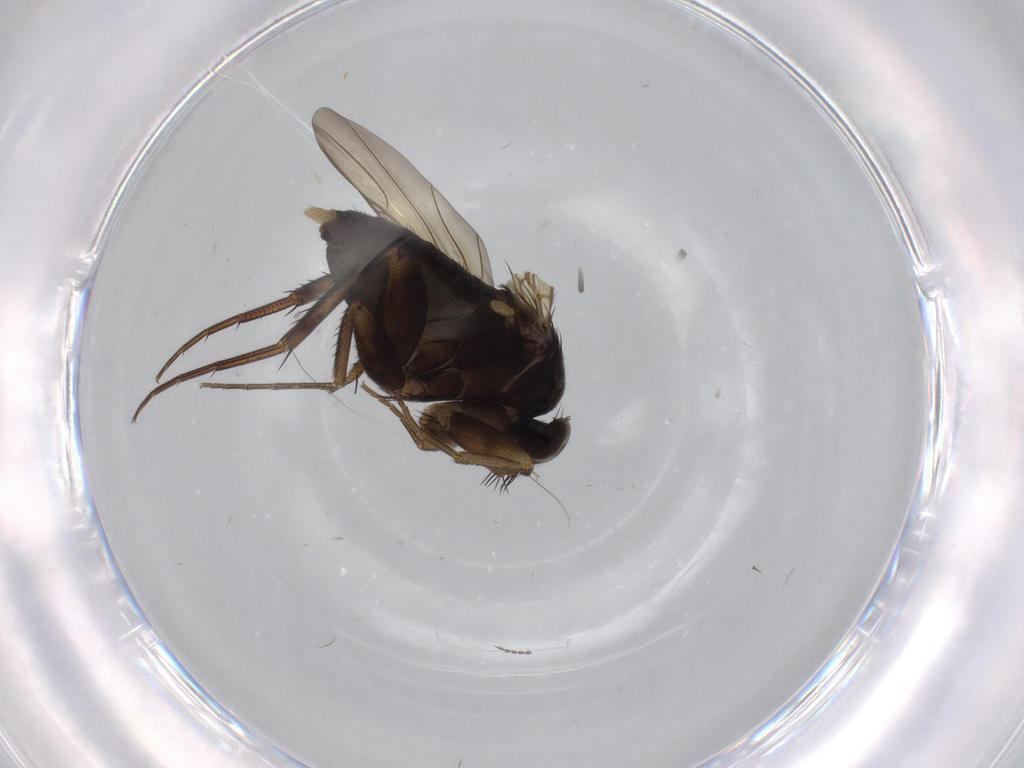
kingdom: Animalia
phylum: Arthropoda
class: Insecta
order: Diptera
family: Phoridae
